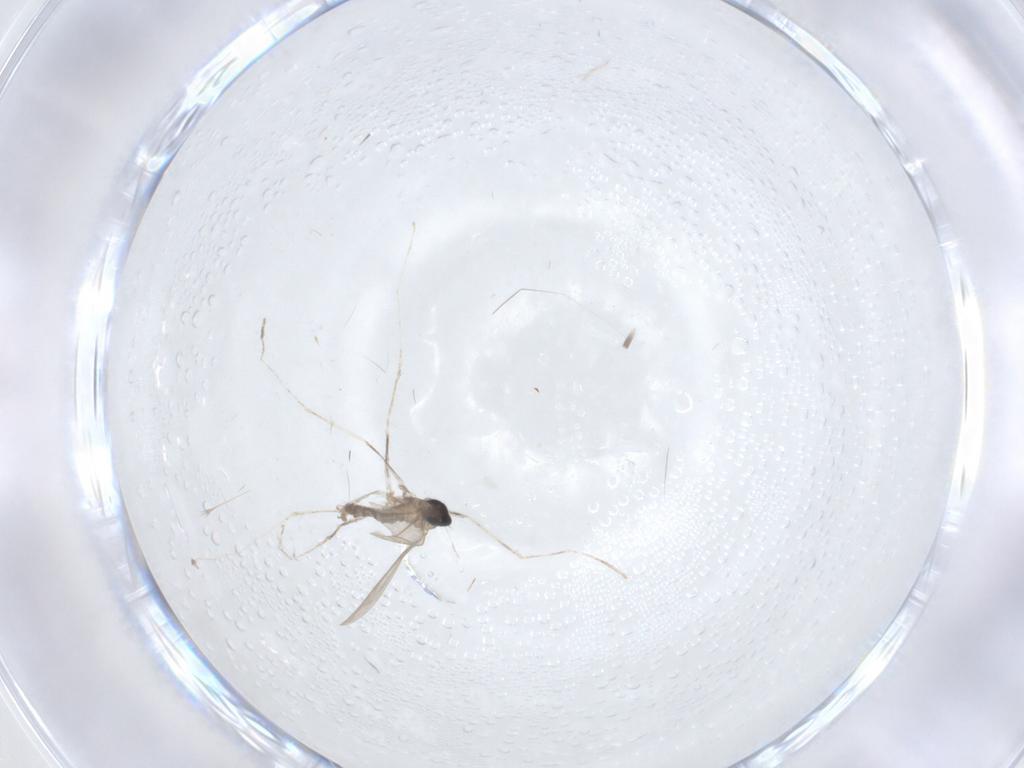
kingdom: Animalia
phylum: Arthropoda
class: Insecta
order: Diptera
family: Cecidomyiidae
